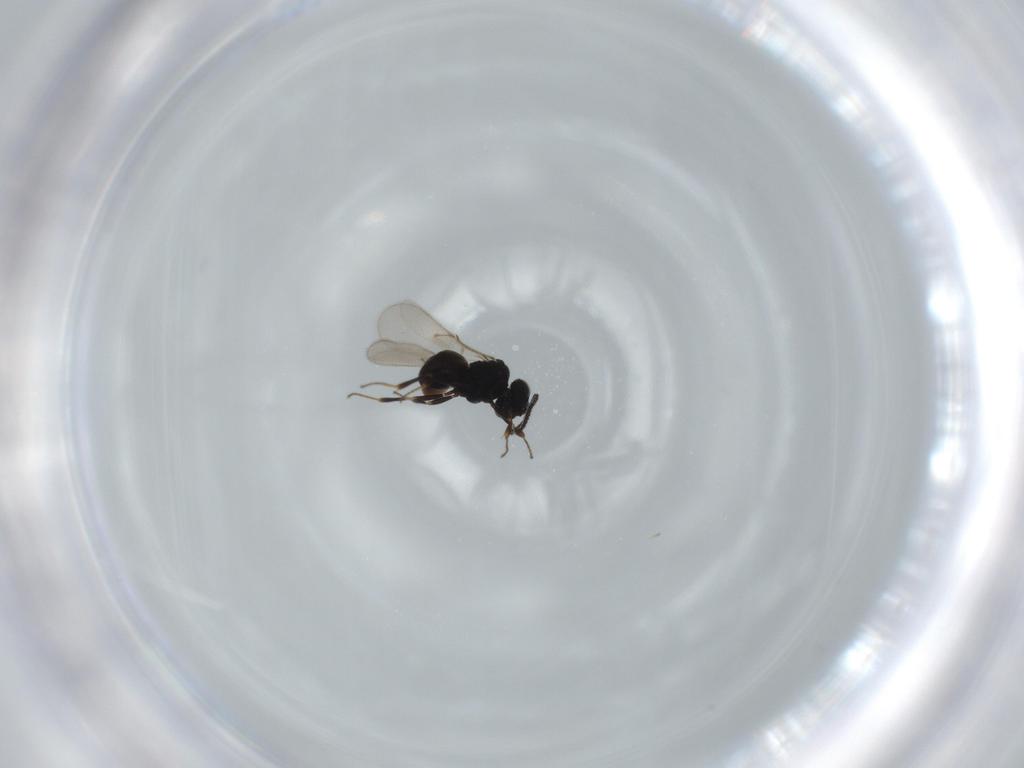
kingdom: Animalia
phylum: Arthropoda
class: Insecta
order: Hymenoptera
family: Scelionidae
